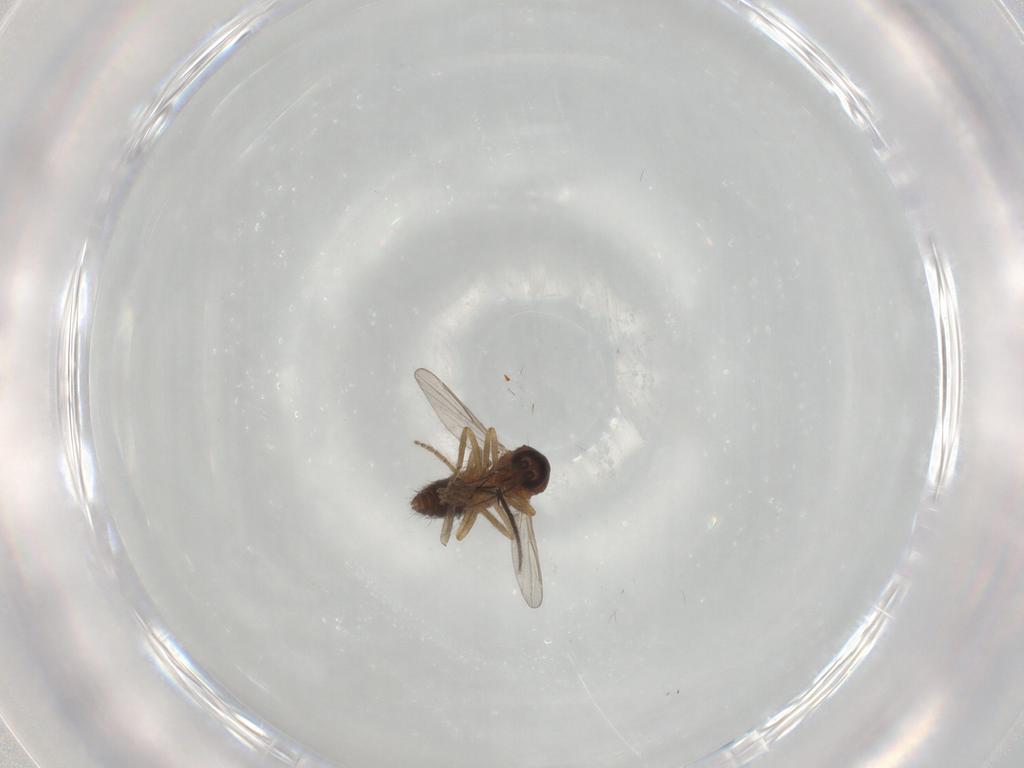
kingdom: Animalia
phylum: Arthropoda
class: Insecta
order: Diptera
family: Ceratopogonidae
